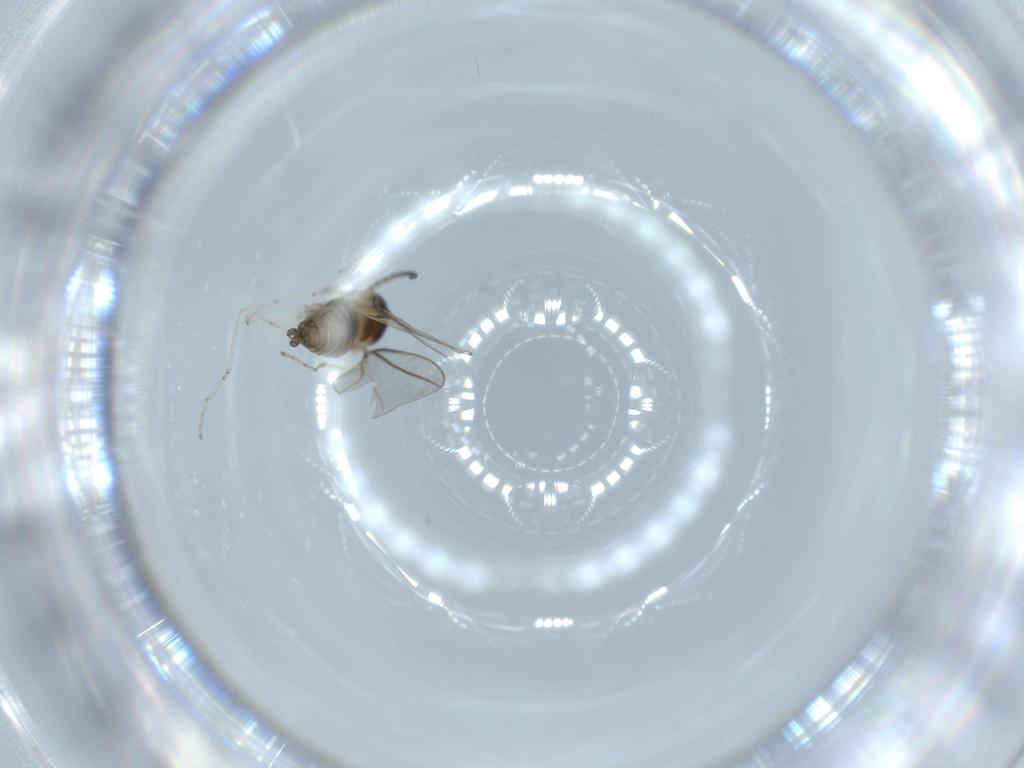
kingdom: Animalia
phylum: Arthropoda
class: Insecta
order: Diptera
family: Cecidomyiidae
